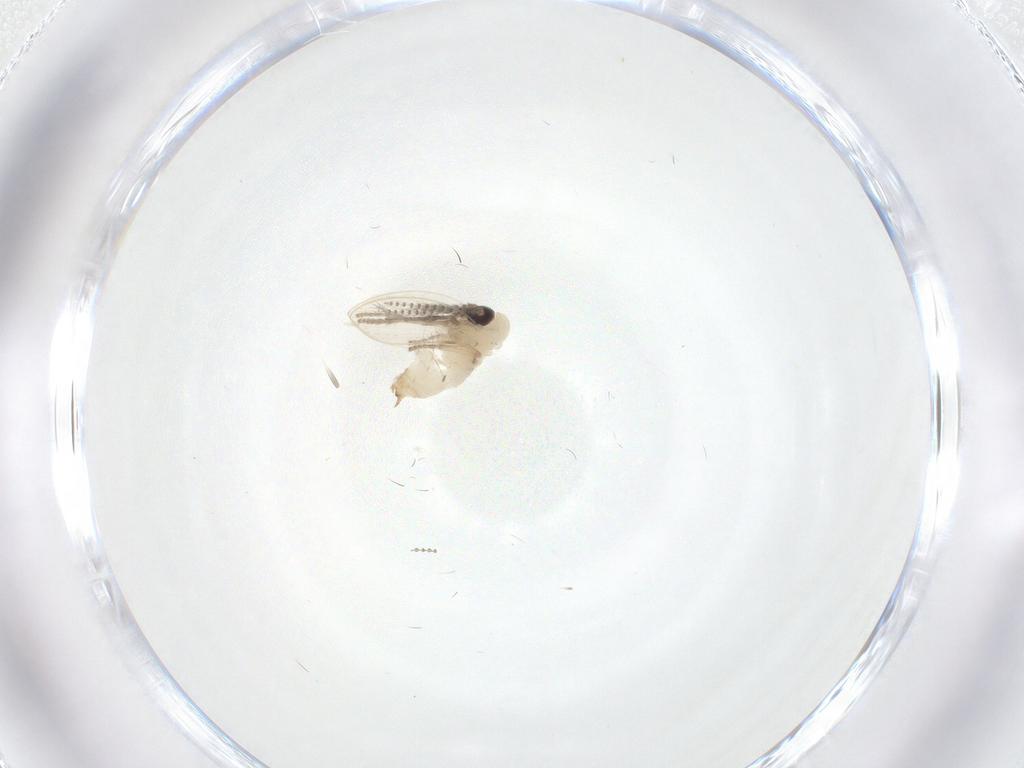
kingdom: Animalia
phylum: Arthropoda
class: Insecta
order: Diptera
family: Psychodidae
